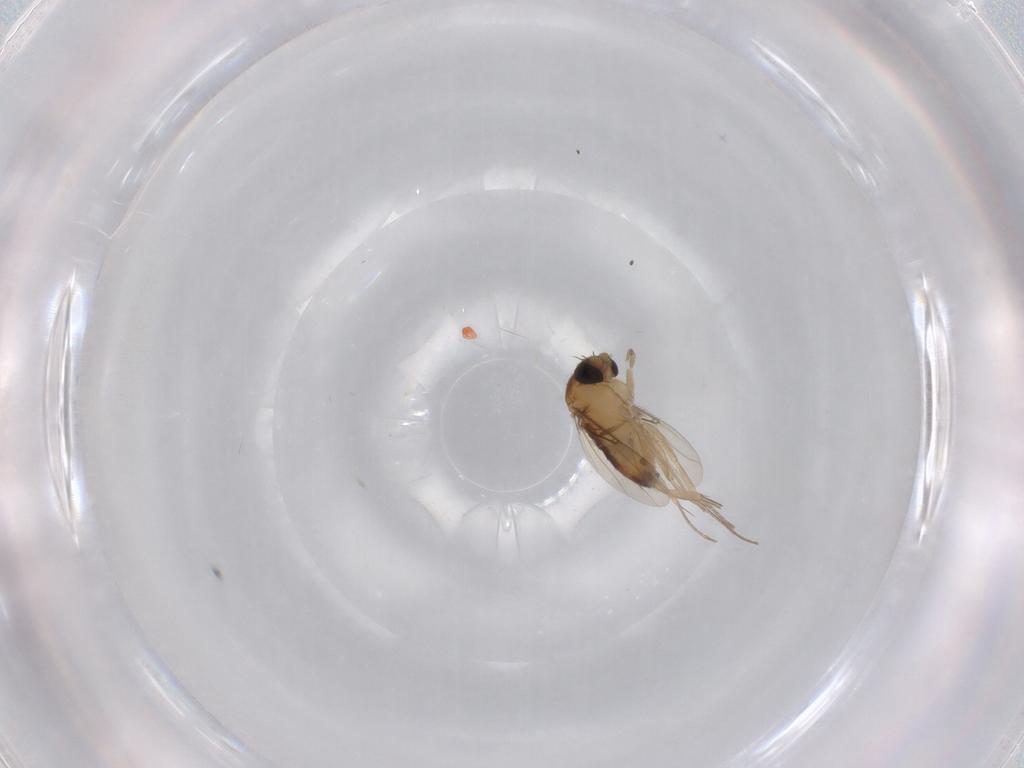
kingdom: Animalia
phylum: Arthropoda
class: Insecta
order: Diptera
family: Phoridae
